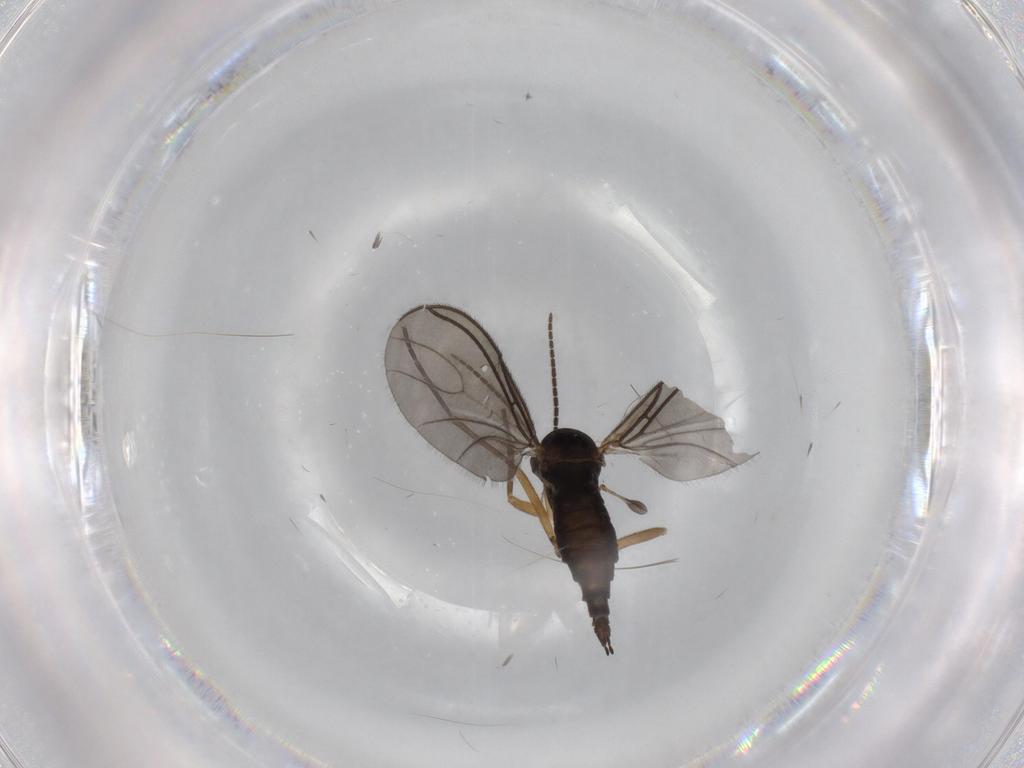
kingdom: Animalia
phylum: Arthropoda
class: Insecta
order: Diptera
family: Sciaridae
